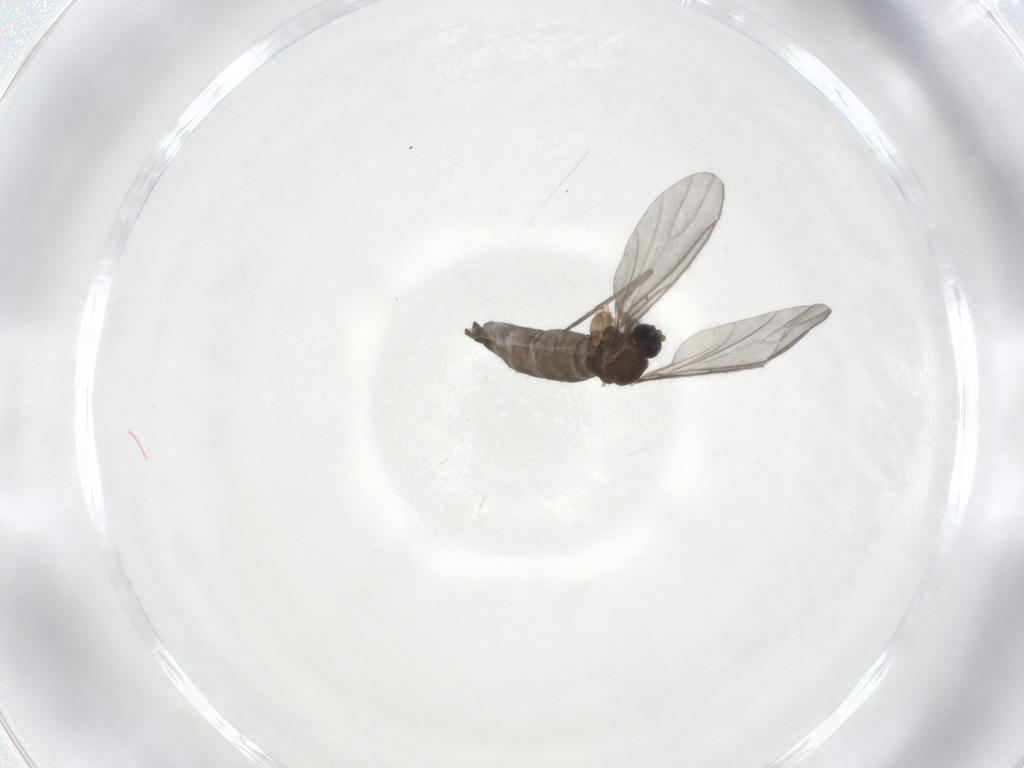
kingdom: Animalia
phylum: Arthropoda
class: Insecta
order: Diptera
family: Sciaridae
